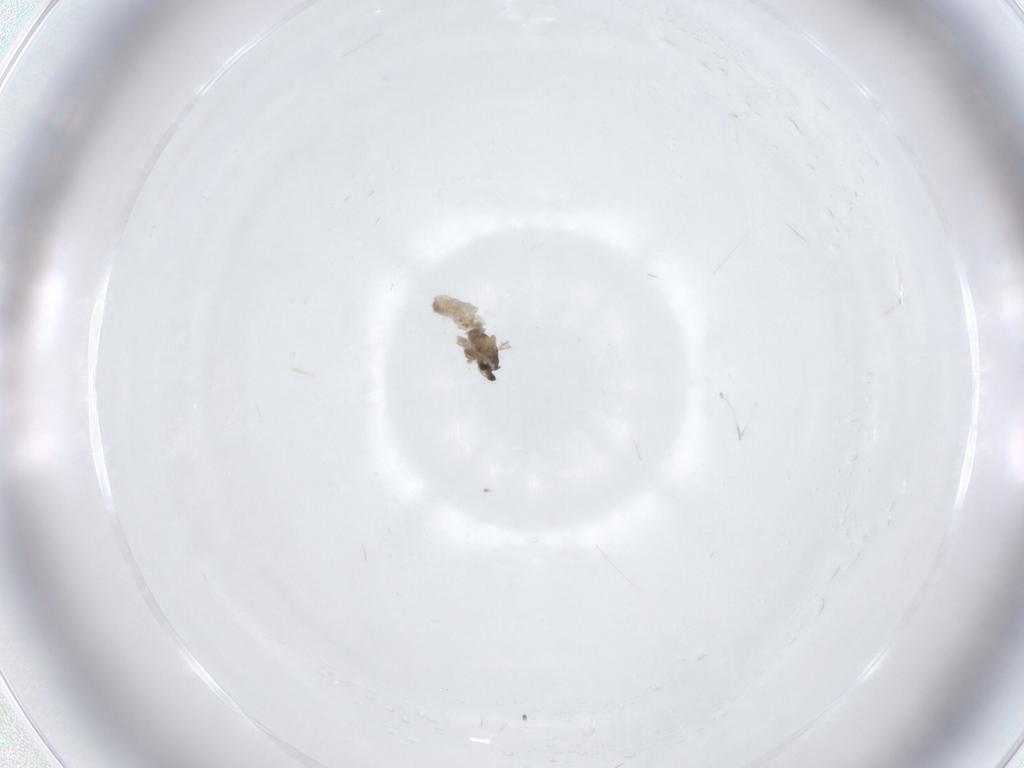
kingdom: Animalia
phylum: Arthropoda
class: Insecta
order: Diptera
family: Cecidomyiidae
